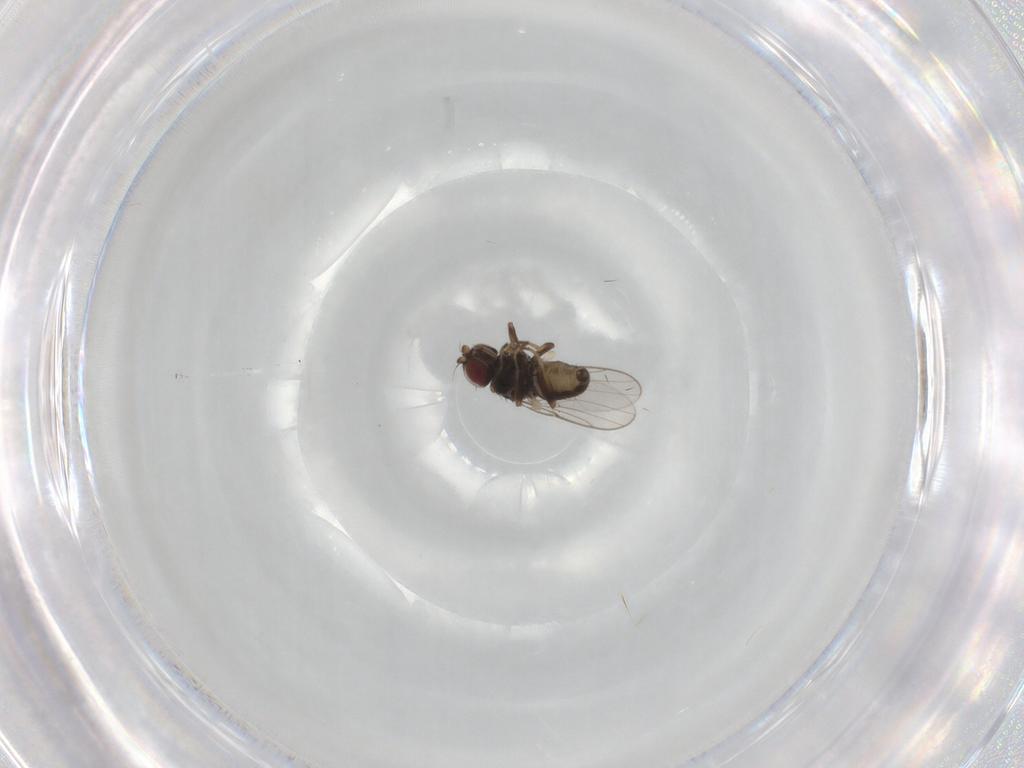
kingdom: Animalia
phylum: Arthropoda
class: Insecta
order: Diptera
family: Chloropidae
